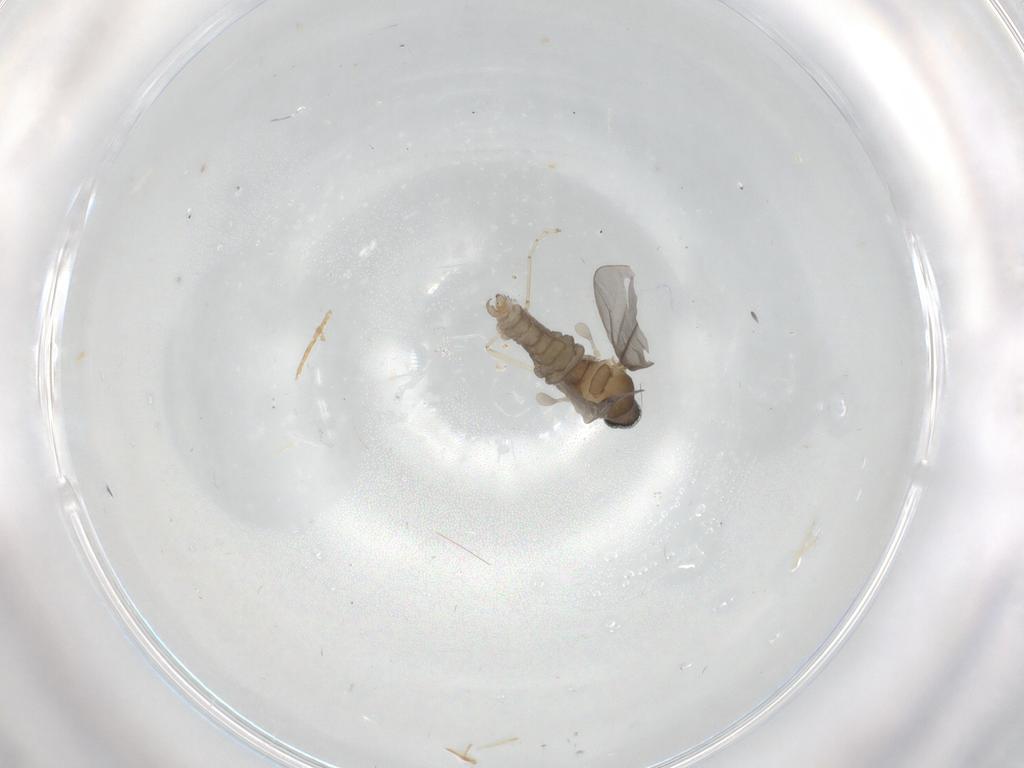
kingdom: Animalia
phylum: Arthropoda
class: Insecta
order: Diptera
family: Cecidomyiidae
